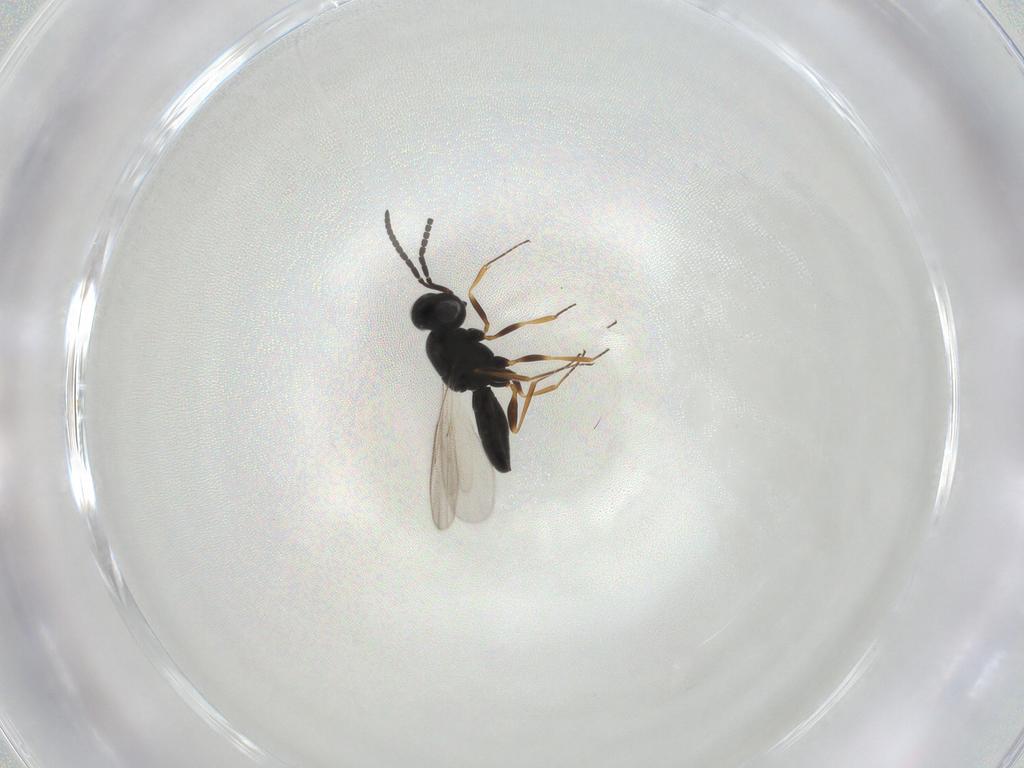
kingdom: Animalia
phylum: Arthropoda
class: Insecta
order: Hymenoptera
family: Scelionidae
